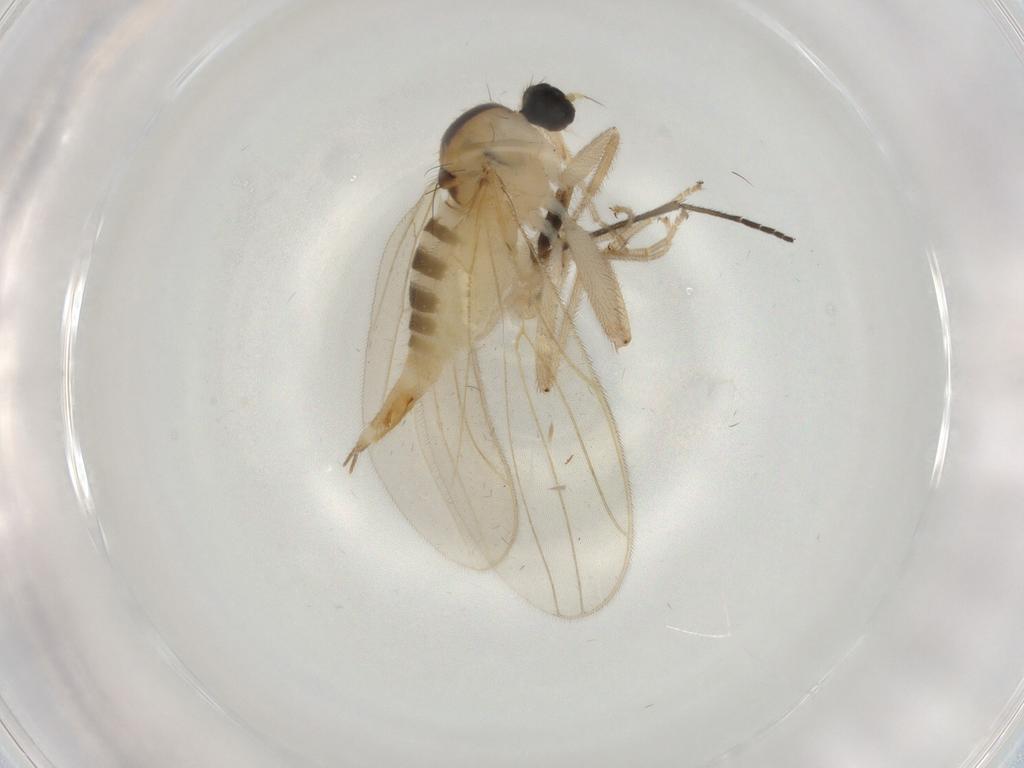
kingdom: Animalia
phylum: Arthropoda
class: Insecta
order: Diptera
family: Hybotidae
